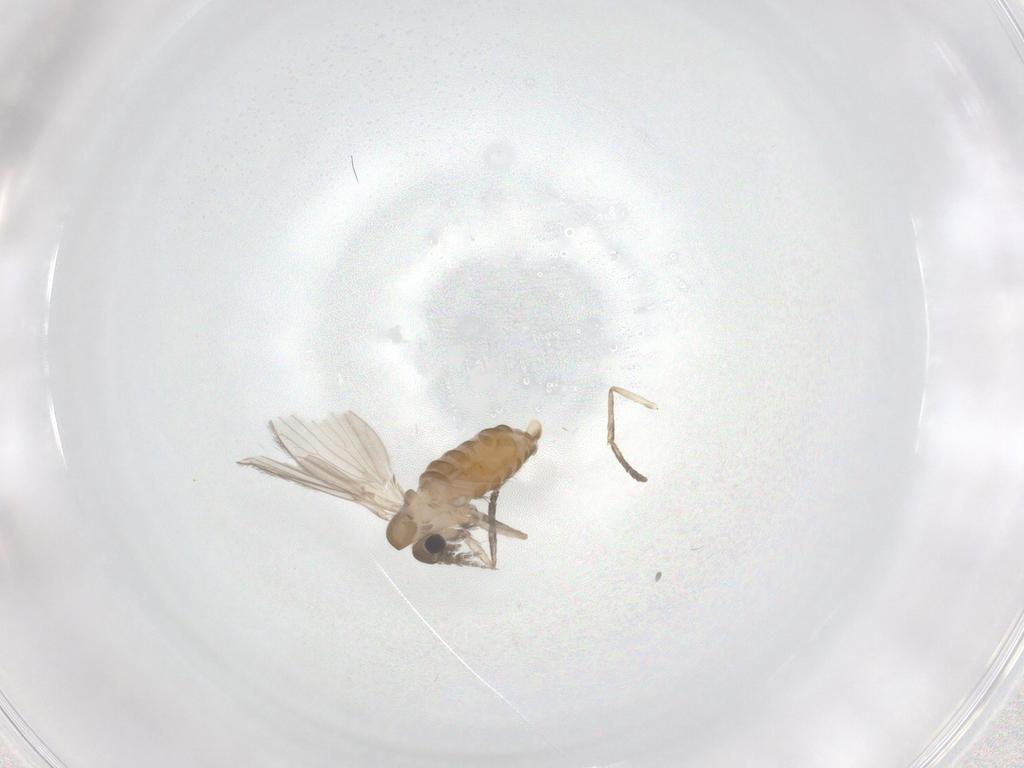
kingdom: Animalia
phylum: Arthropoda
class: Insecta
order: Diptera
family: Psychodidae
